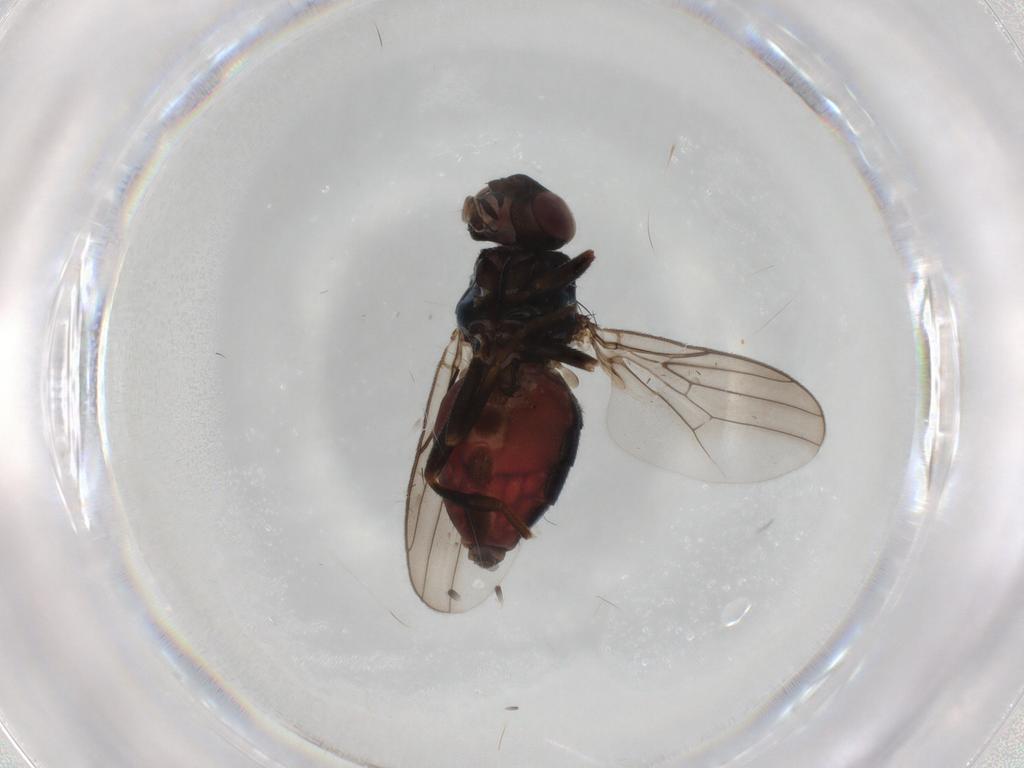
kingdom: Animalia
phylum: Arthropoda
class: Insecta
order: Diptera
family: Chloropidae
